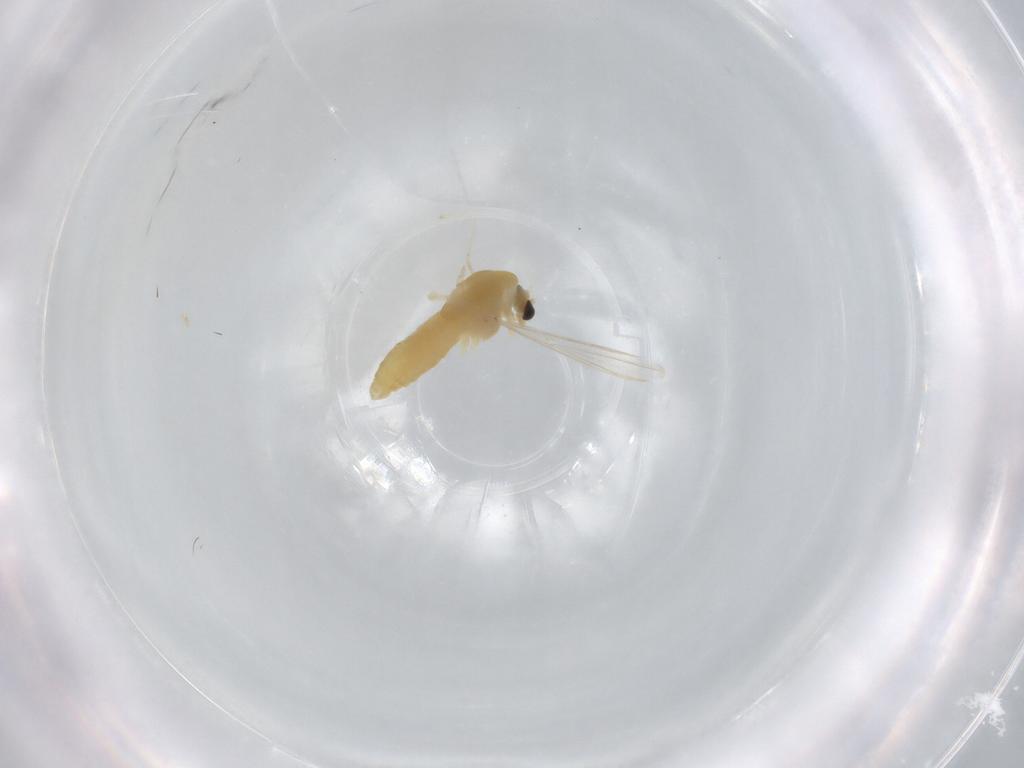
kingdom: Animalia
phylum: Arthropoda
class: Insecta
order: Diptera
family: Chironomidae
